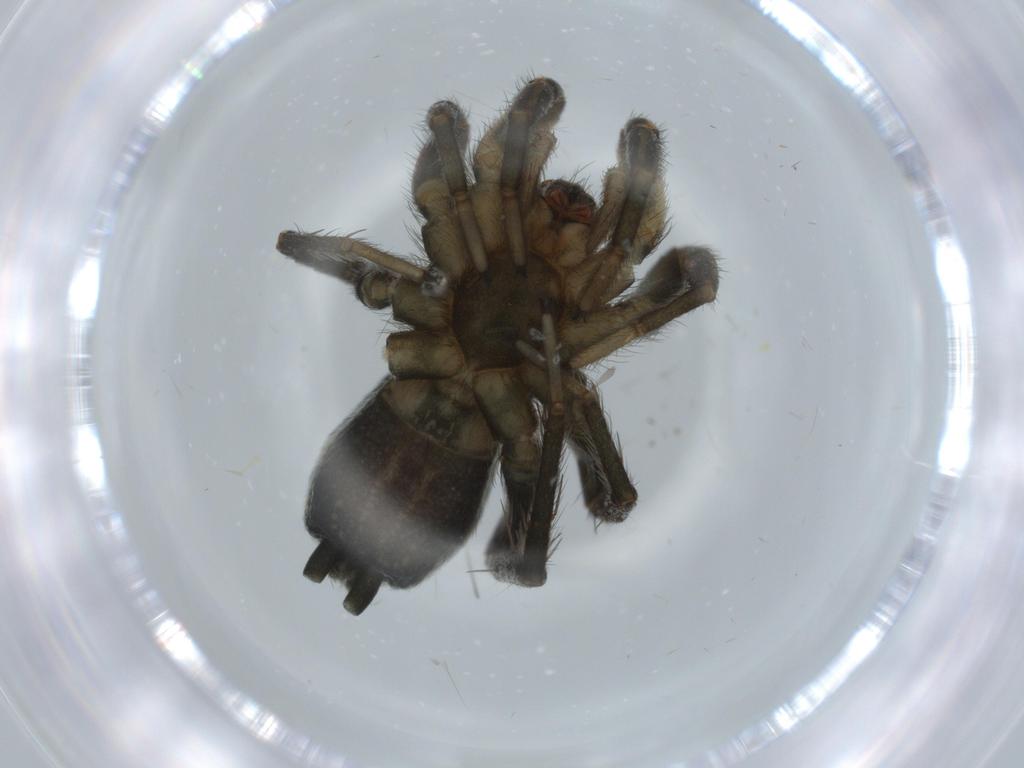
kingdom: Animalia
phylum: Arthropoda
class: Arachnida
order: Araneae
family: Gnaphosidae
